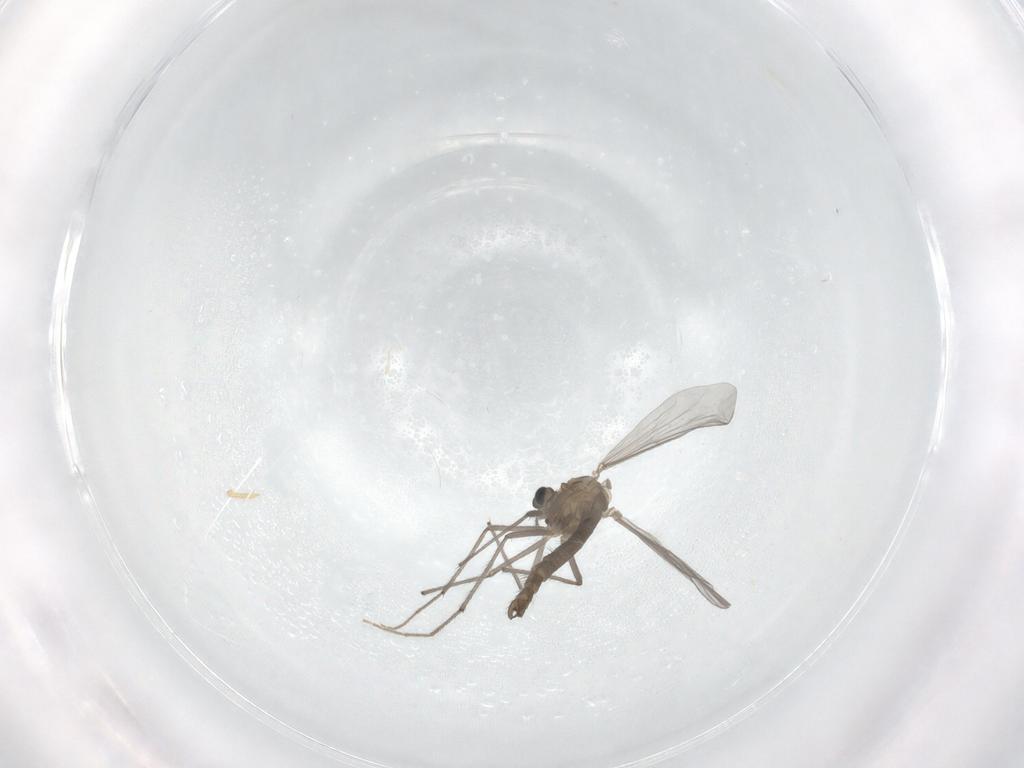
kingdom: Animalia
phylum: Arthropoda
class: Insecta
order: Diptera
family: Chironomidae
